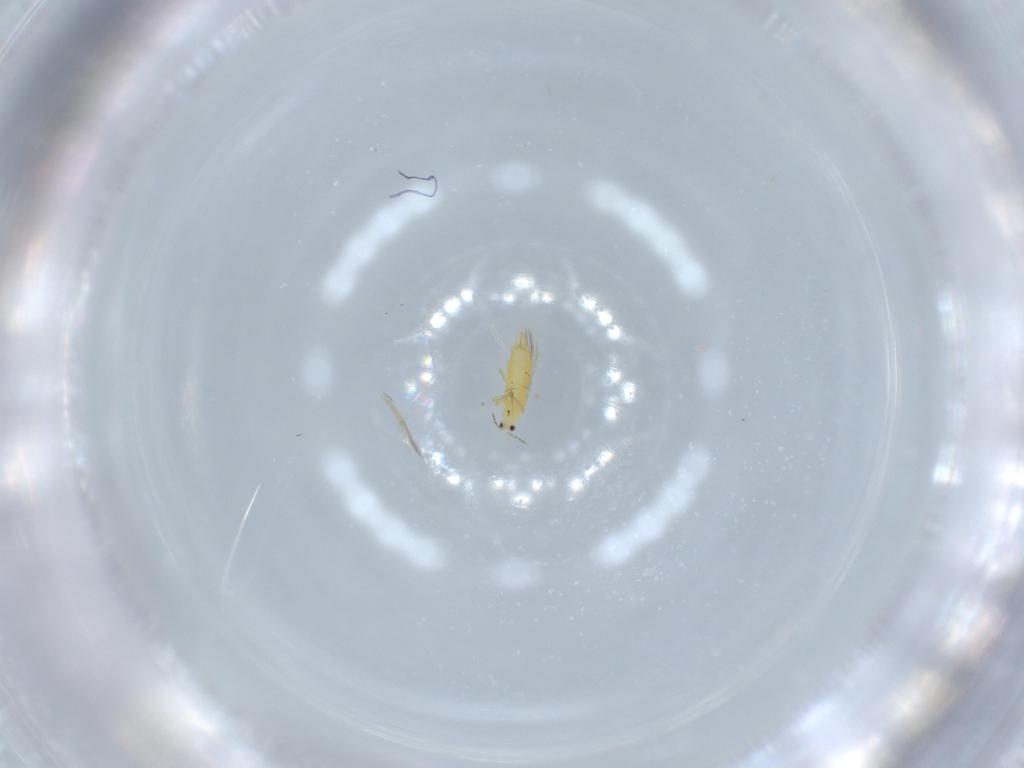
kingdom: Animalia
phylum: Arthropoda
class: Insecta
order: Thysanoptera
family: Thripidae
